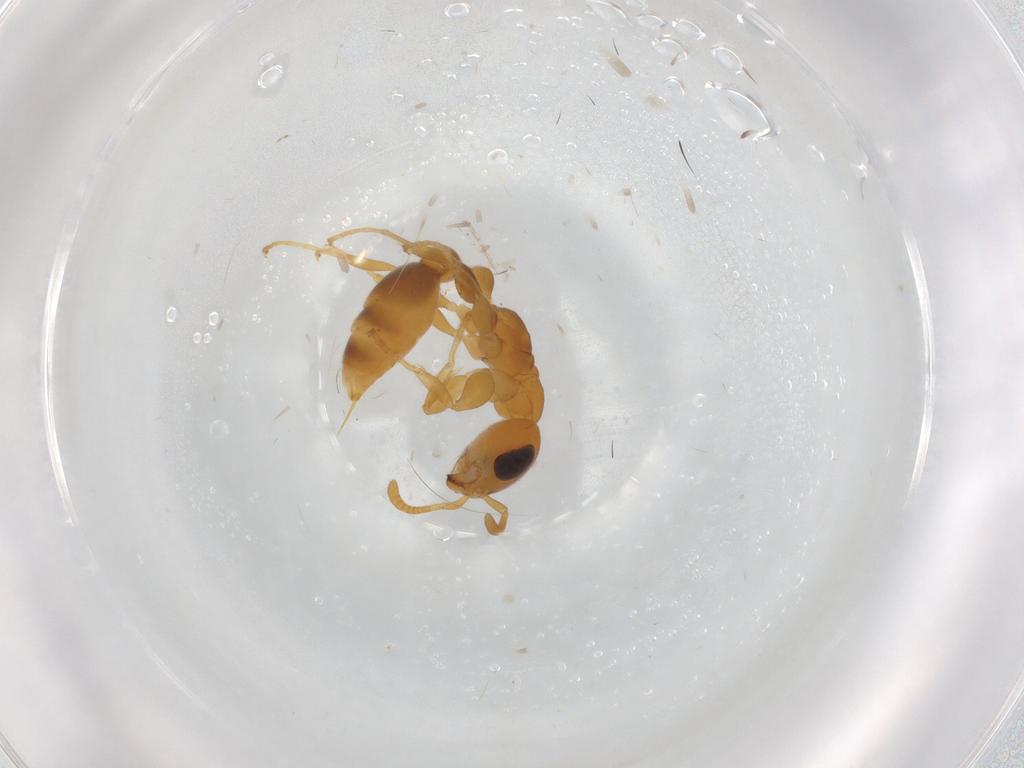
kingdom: Animalia
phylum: Arthropoda
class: Insecta
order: Hymenoptera
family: Formicidae
